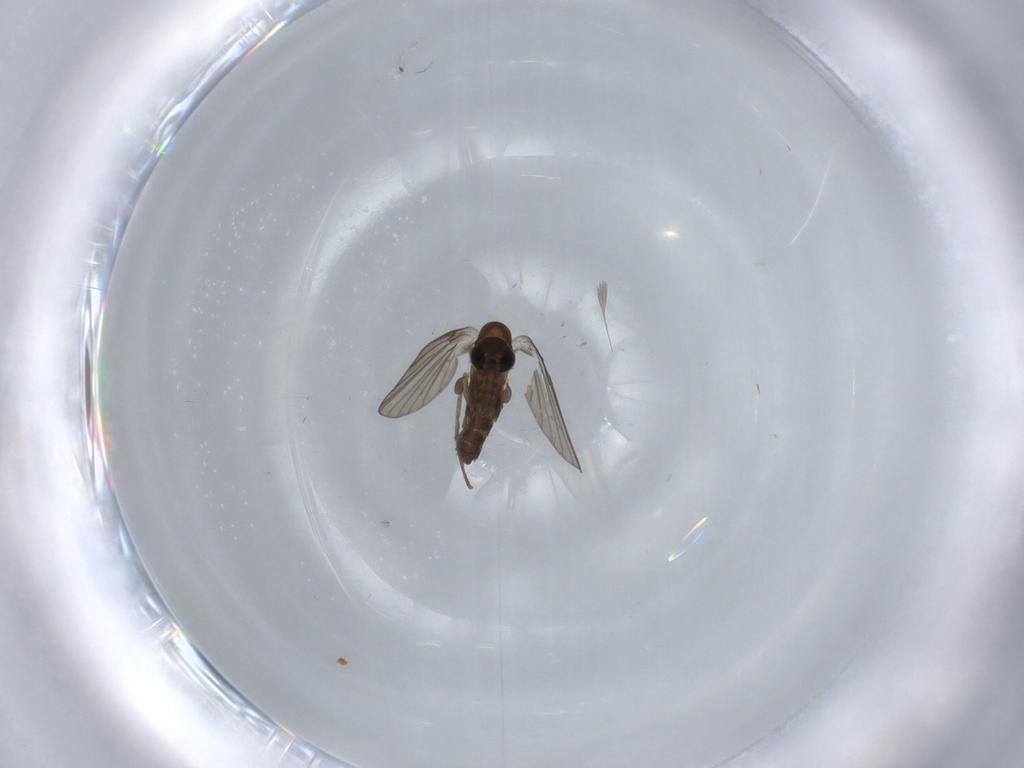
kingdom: Animalia
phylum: Arthropoda
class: Insecta
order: Diptera
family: Psychodidae
